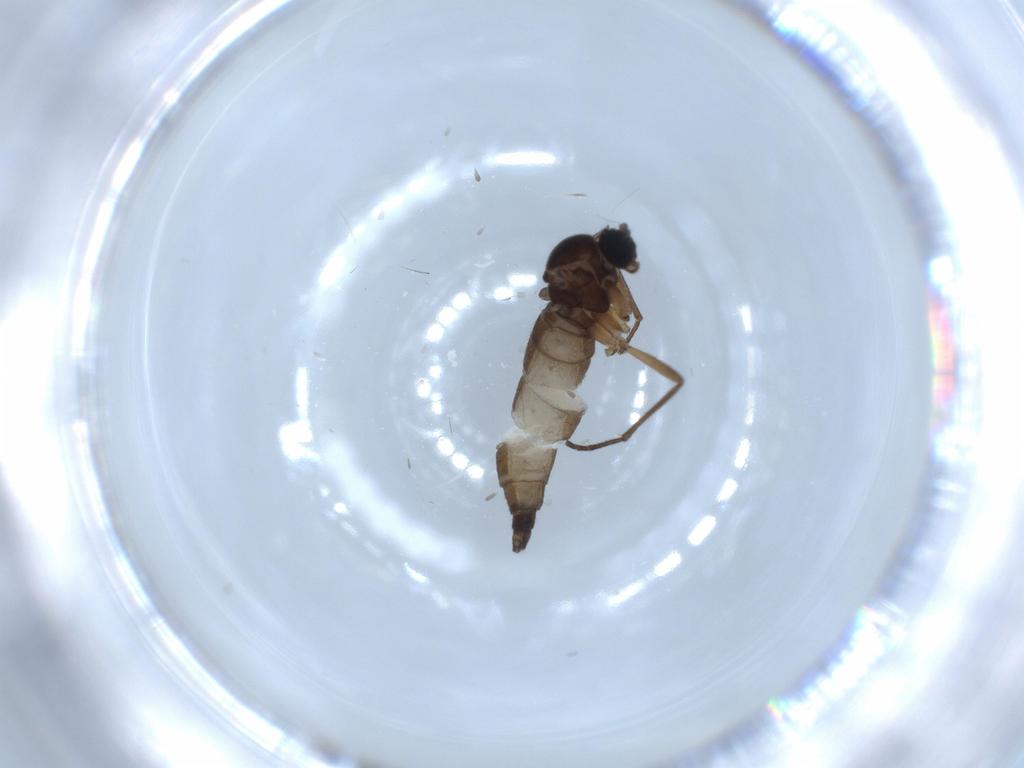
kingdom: Animalia
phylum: Arthropoda
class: Insecta
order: Diptera
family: Sciaridae
